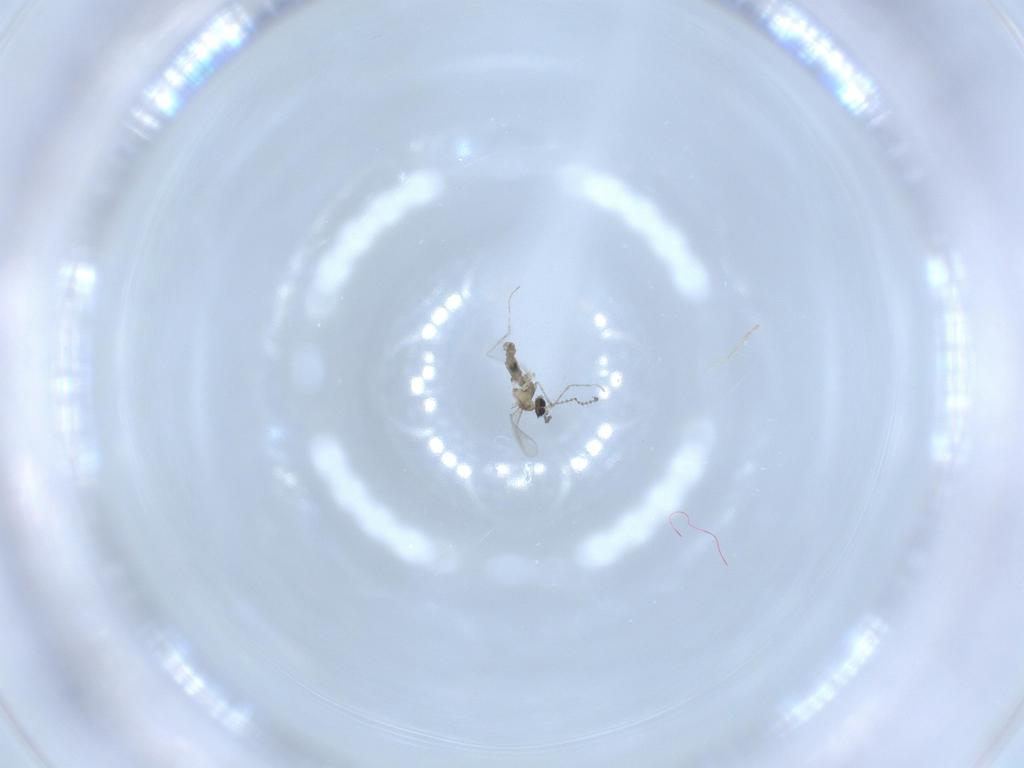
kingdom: Animalia
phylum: Arthropoda
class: Insecta
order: Diptera
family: Cecidomyiidae
